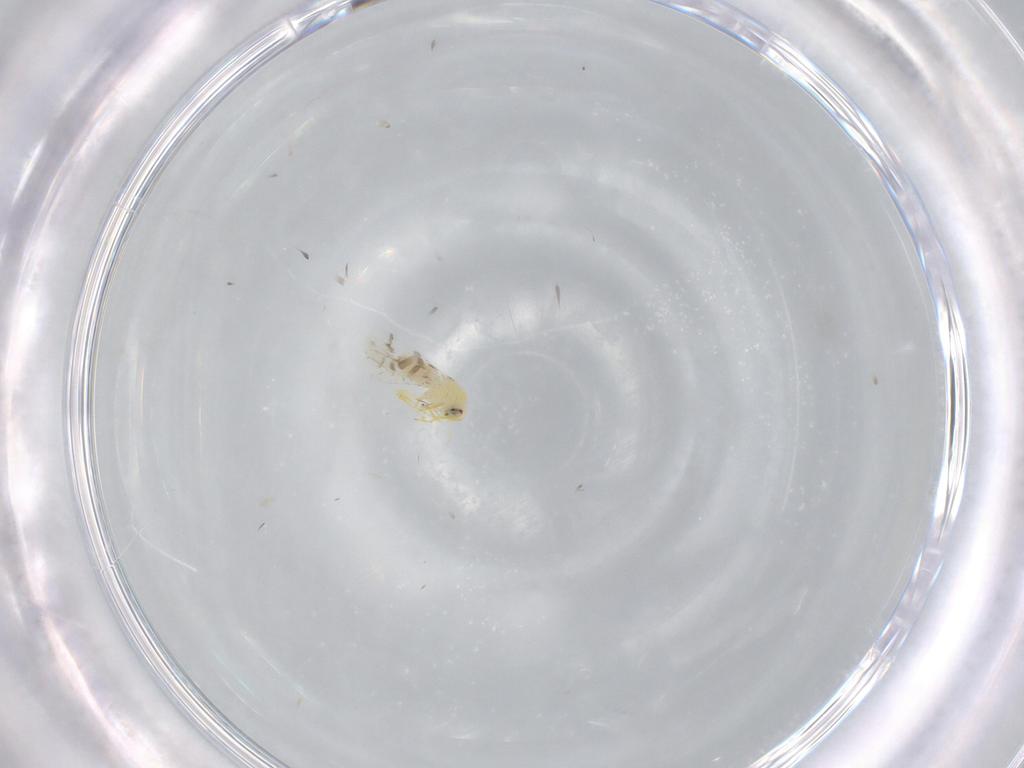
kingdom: Animalia
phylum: Arthropoda
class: Insecta
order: Hemiptera
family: Aleyrodidae
